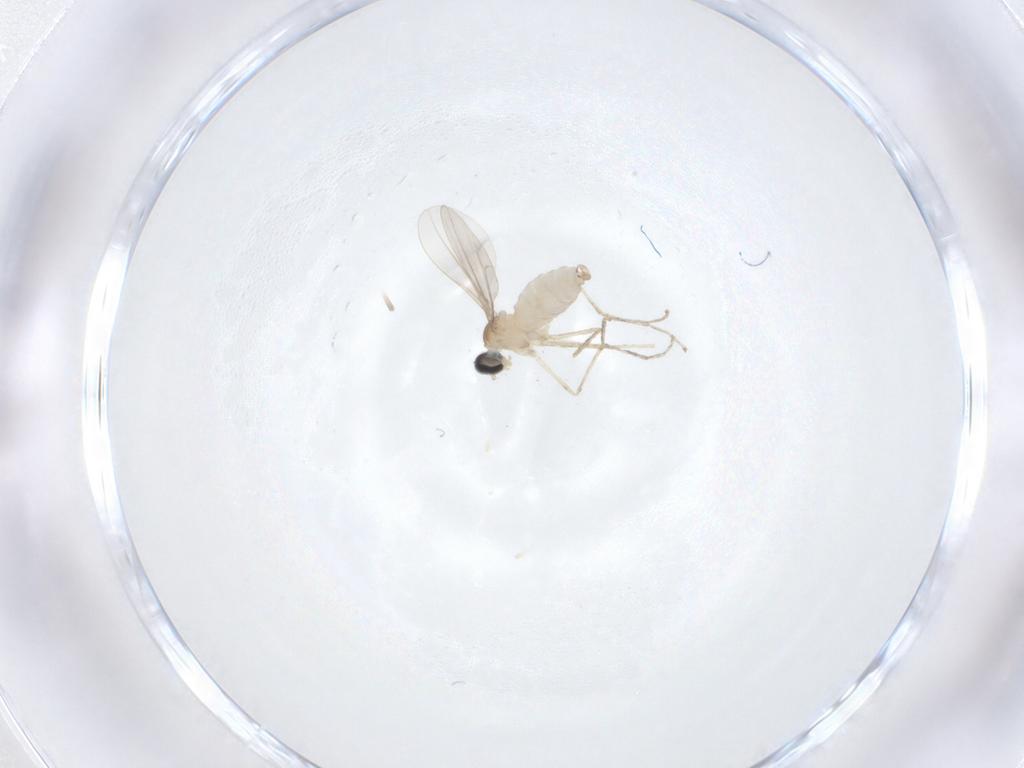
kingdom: Animalia
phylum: Arthropoda
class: Insecta
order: Diptera
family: Cecidomyiidae
